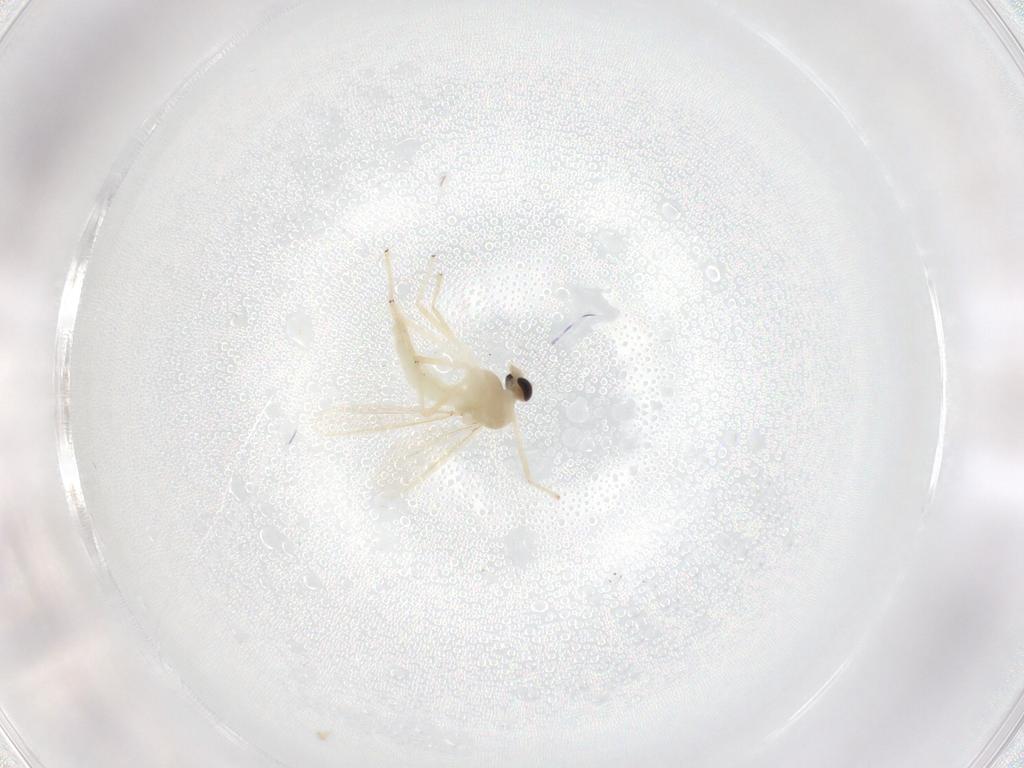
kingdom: Animalia
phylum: Arthropoda
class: Insecta
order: Diptera
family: Chironomidae
